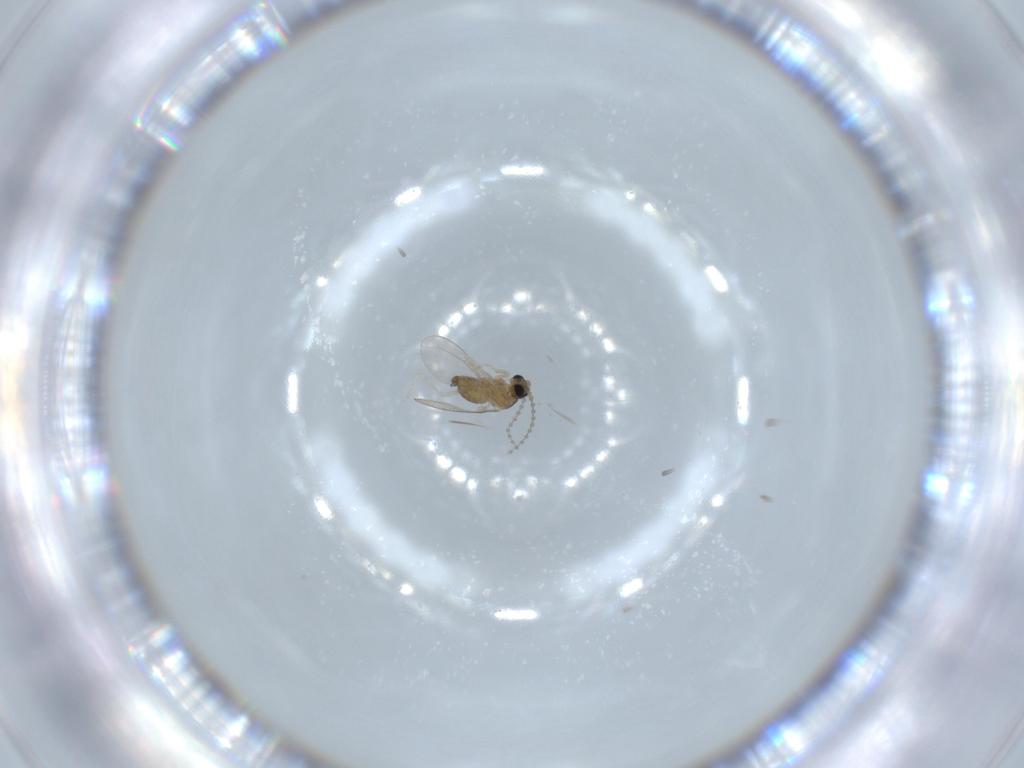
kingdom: Animalia
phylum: Arthropoda
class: Insecta
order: Diptera
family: Cecidomyiidae
